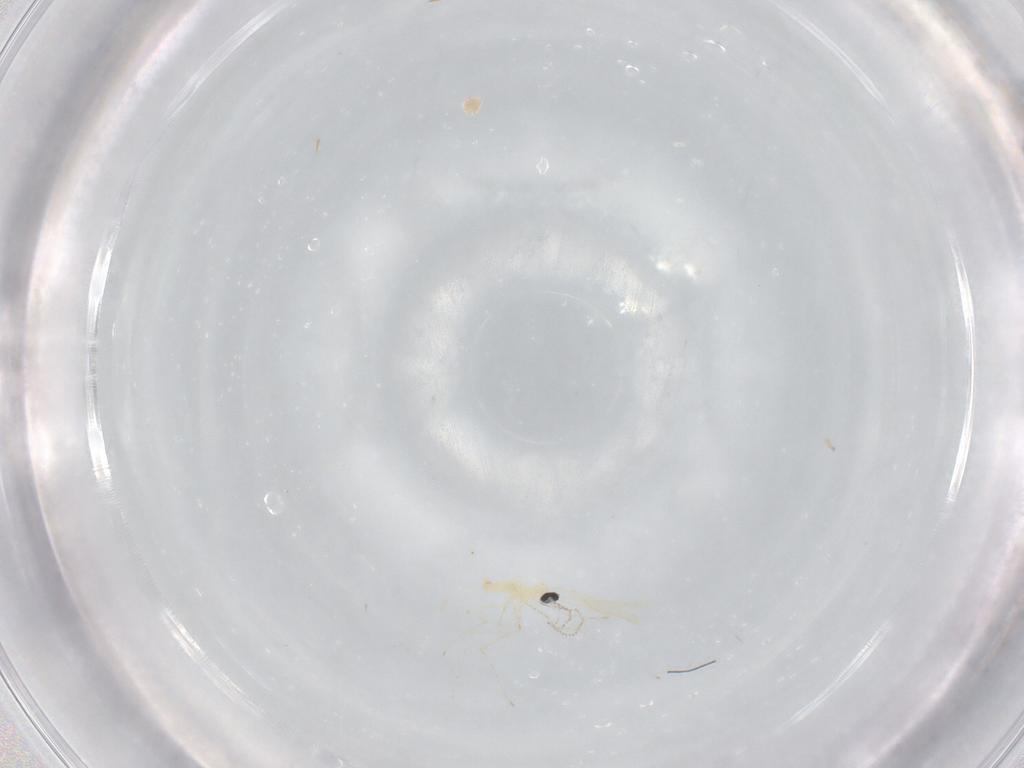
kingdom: Animalia
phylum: Arthropoda
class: Insecta
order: Diptera
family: Cecidomyiidae
